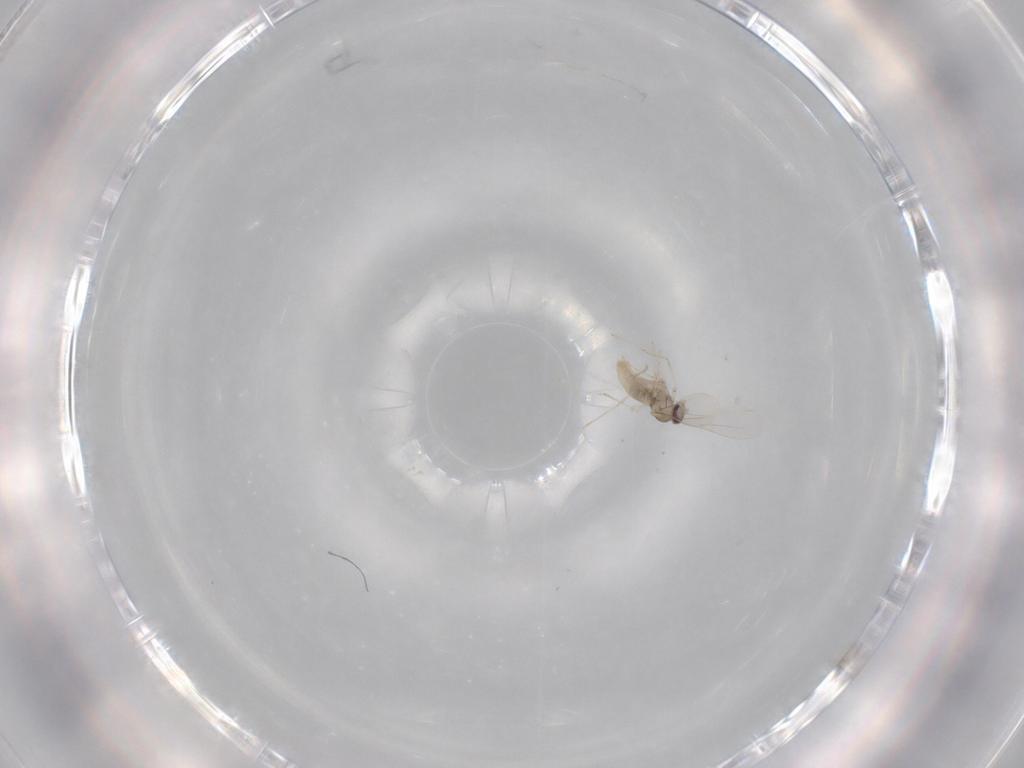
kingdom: Animalia
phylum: Arthropoda
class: Insecta
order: Diptera
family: Cecidomyiidae
